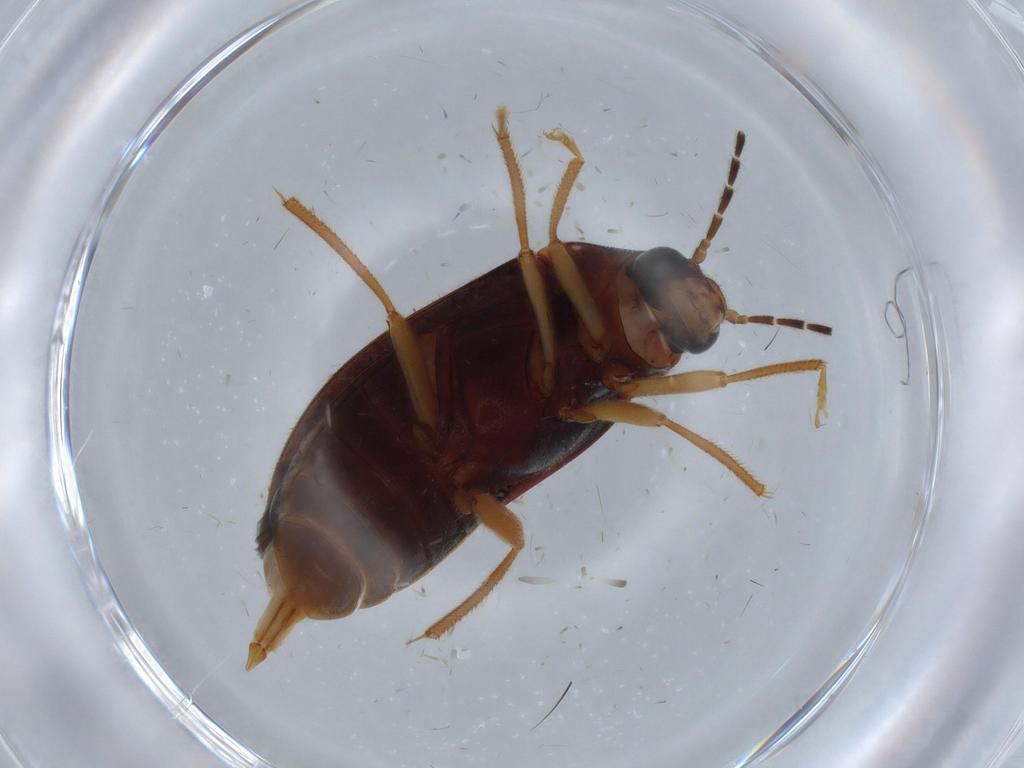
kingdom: Animalia
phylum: Arthropoda
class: Insecta
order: Coleoptera
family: Ptilodactylidae
